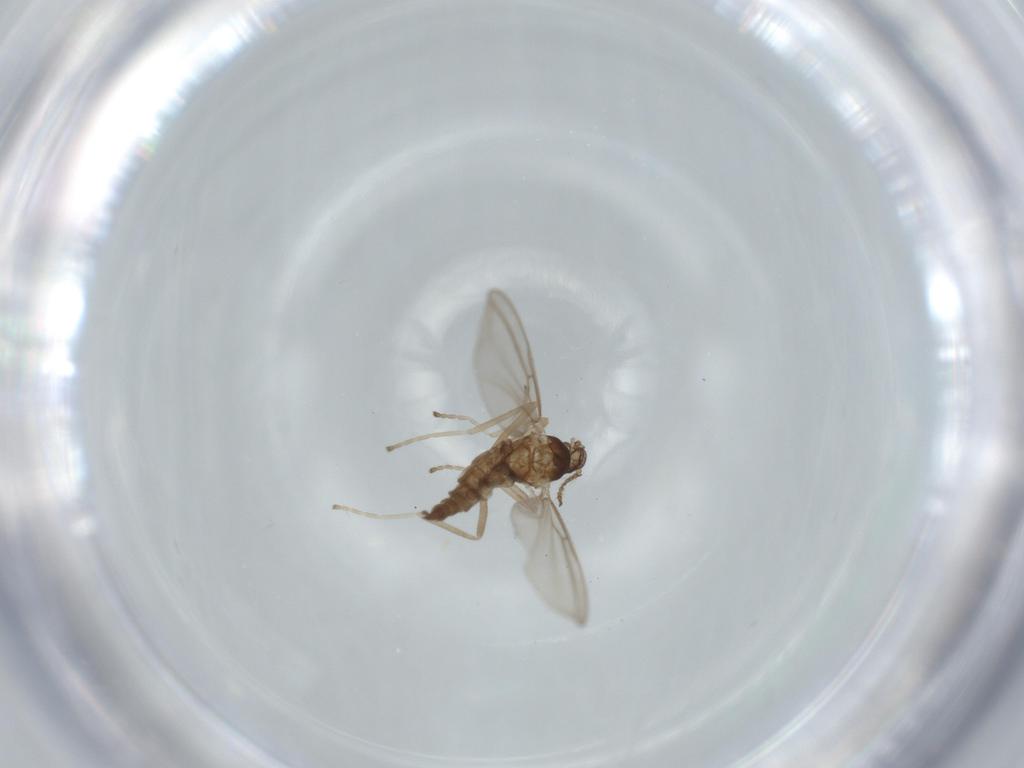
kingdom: Animalia
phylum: Arthropoda
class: Insecta
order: Diptera
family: Cecidomyiidae
